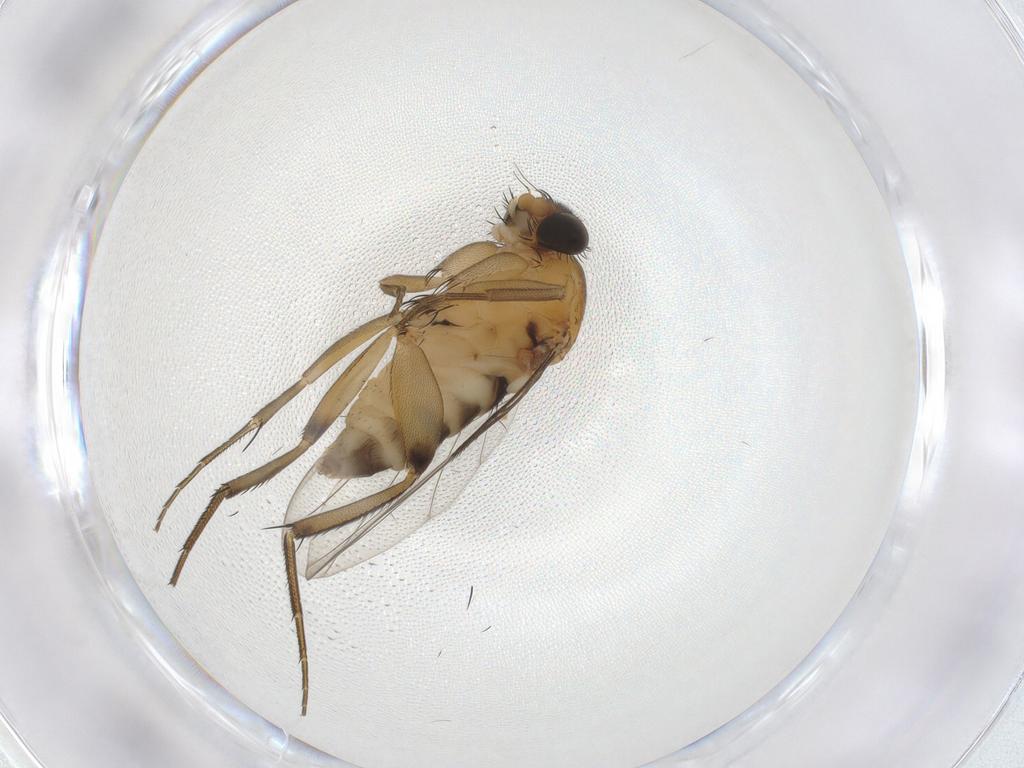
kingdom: Animalia
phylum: Arthropoda
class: Insecta
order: Diptera
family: Phoridae
